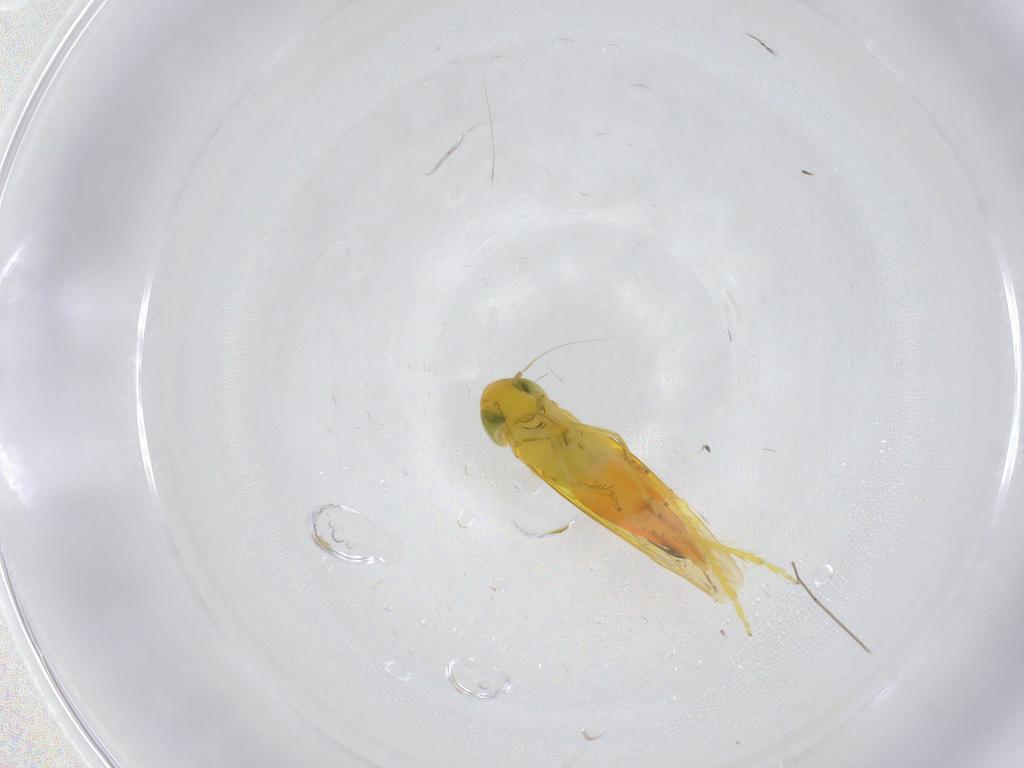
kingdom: Animalia
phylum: Arthropoda
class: Insecta
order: Hemiptera
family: Cicadellidae
